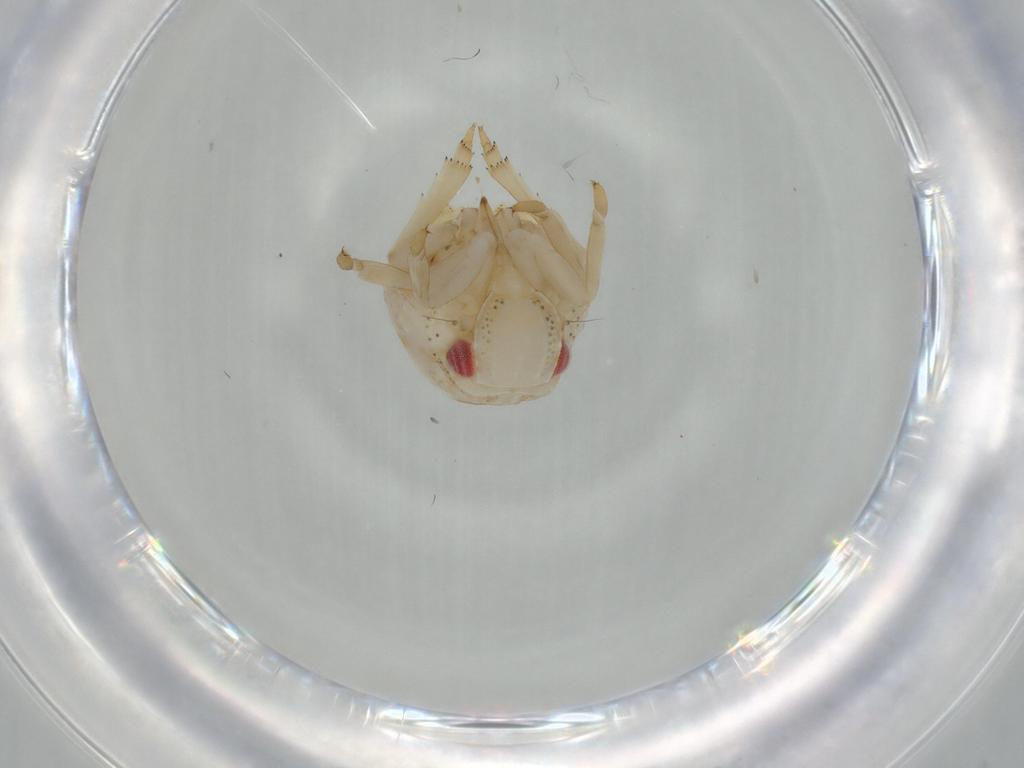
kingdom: Animalia
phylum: Arthropoda
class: Insecta
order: Hemiptera
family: Acanaloniidae
